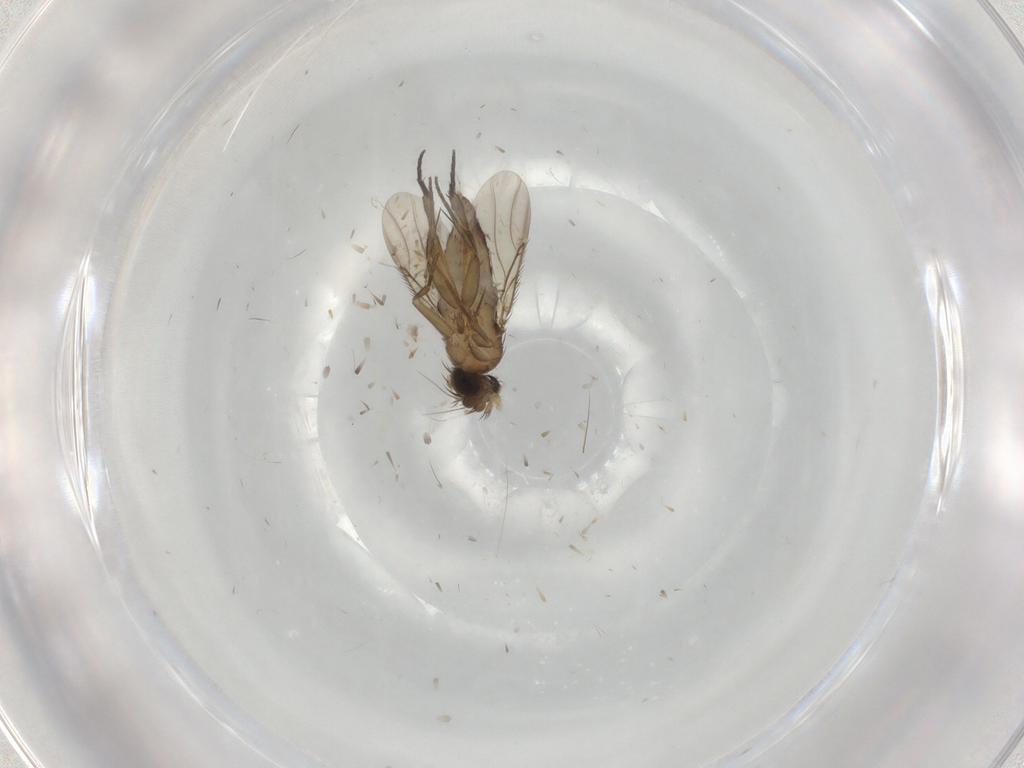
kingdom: Animalia
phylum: Arthropoda
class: Insecta
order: Diptera
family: Phoridae
